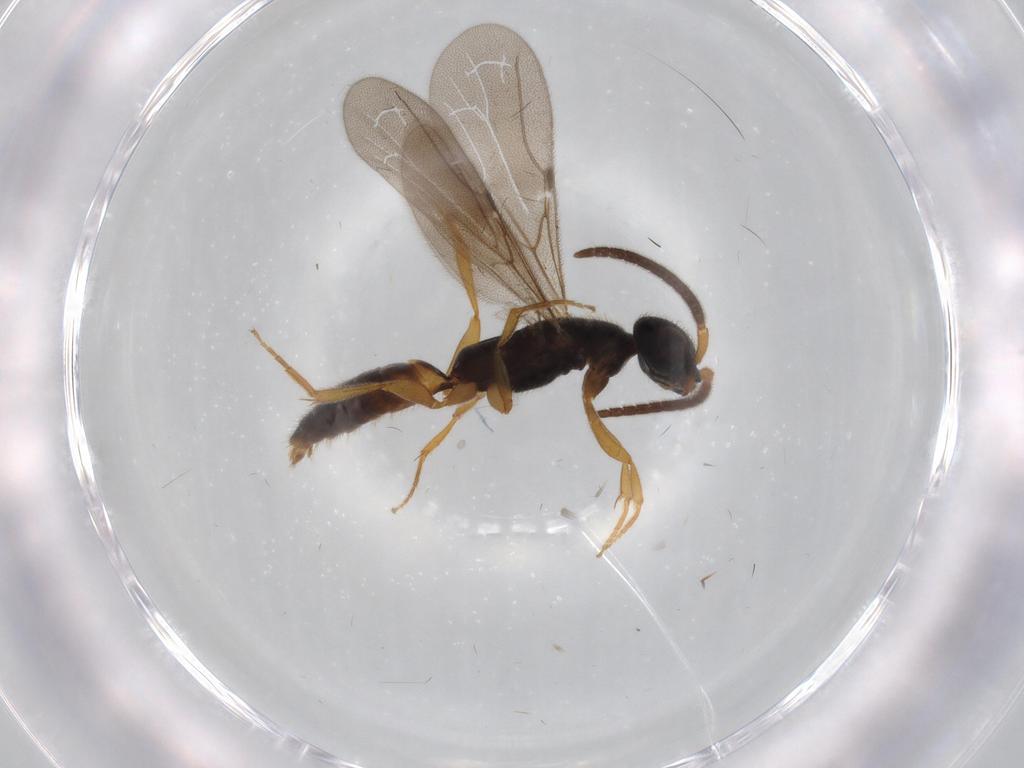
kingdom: Animalia
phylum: Arthropoda
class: Insecta
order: Hymenoptera
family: Bethylidae
